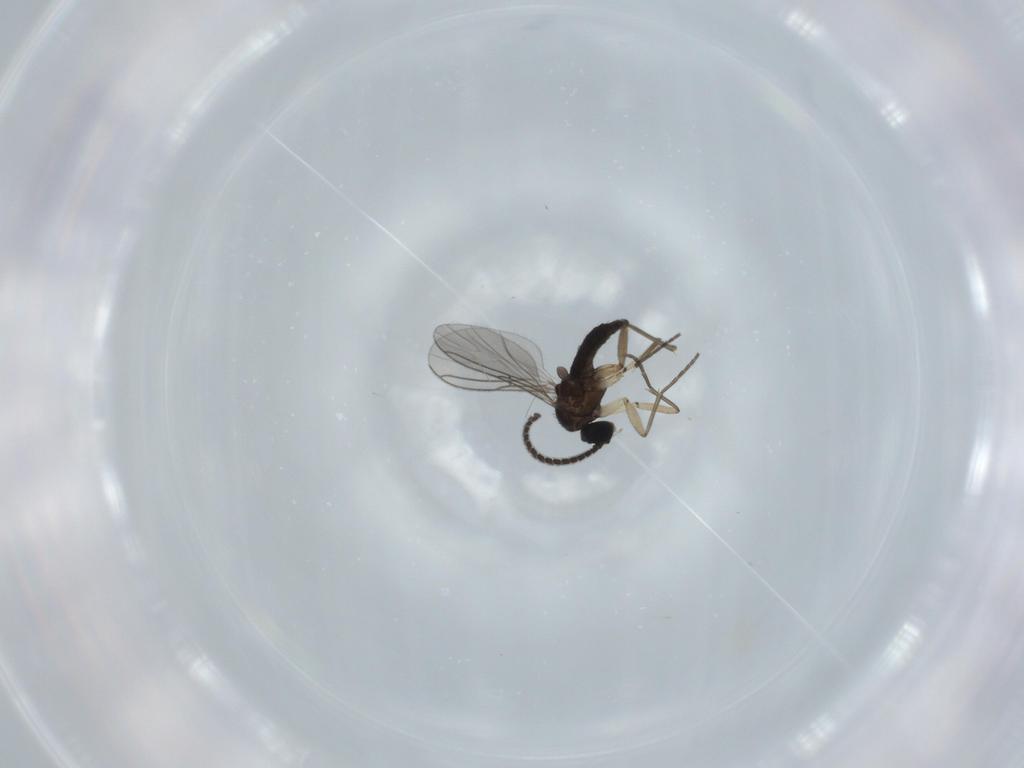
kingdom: Animalia
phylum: Arthropoda
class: Insecta
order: Diptera
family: Sciaridae
